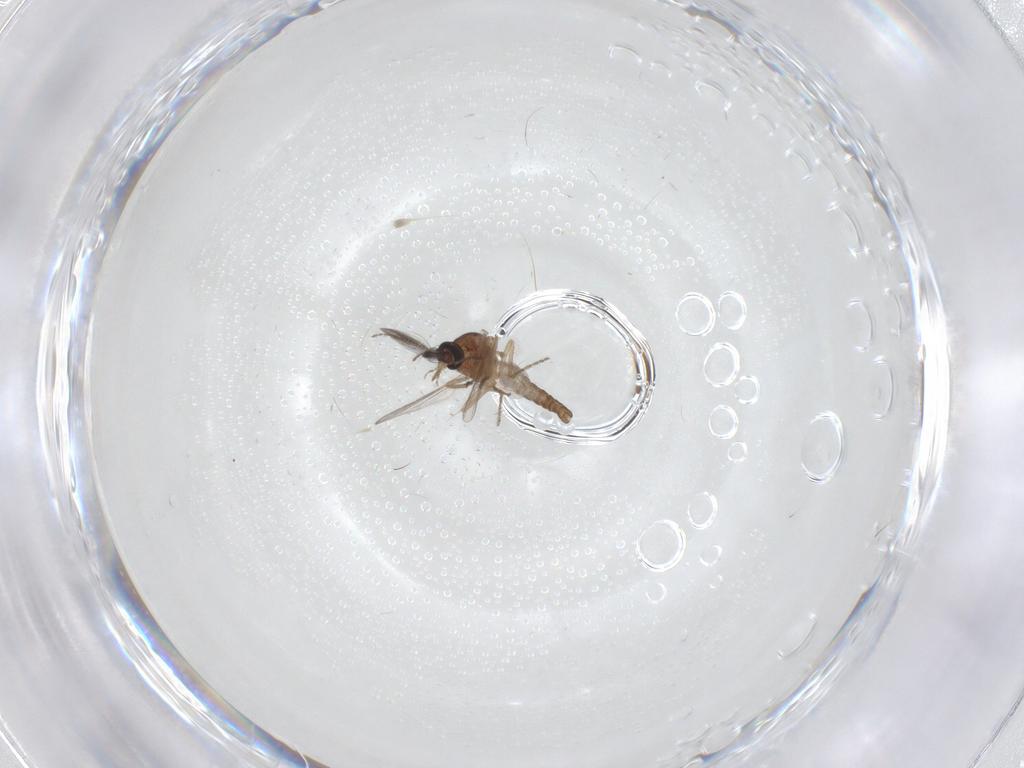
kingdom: Animalia
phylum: Arthropoda
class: Insecta
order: Diptera
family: Ceratopogonidae
